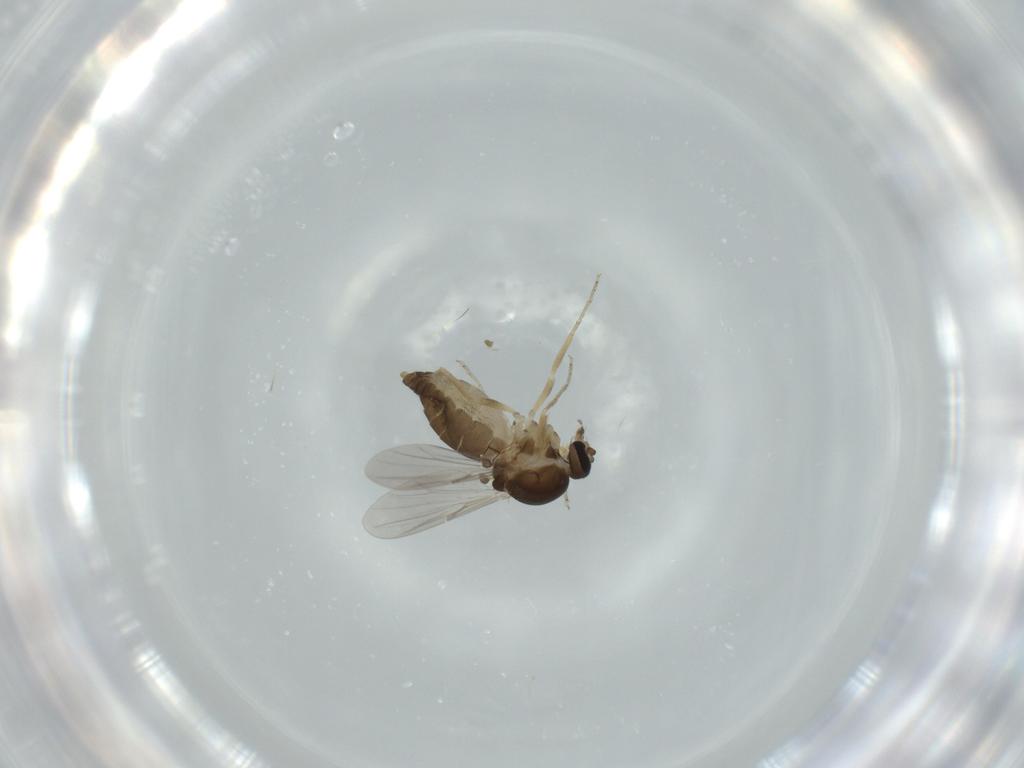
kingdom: Animalia
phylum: Arthropoda
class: Insecta
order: Diptera
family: Ceratopogonidae
